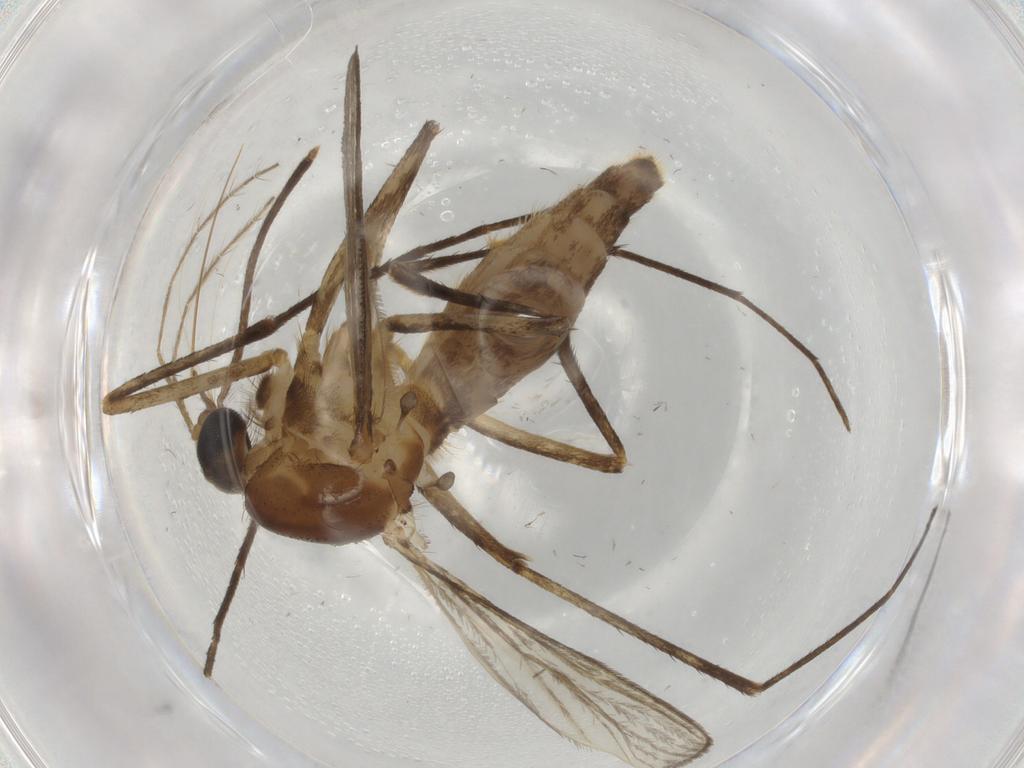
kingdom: Animalia
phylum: Arthropoda
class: Insecta
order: Diptera
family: Culicidae
